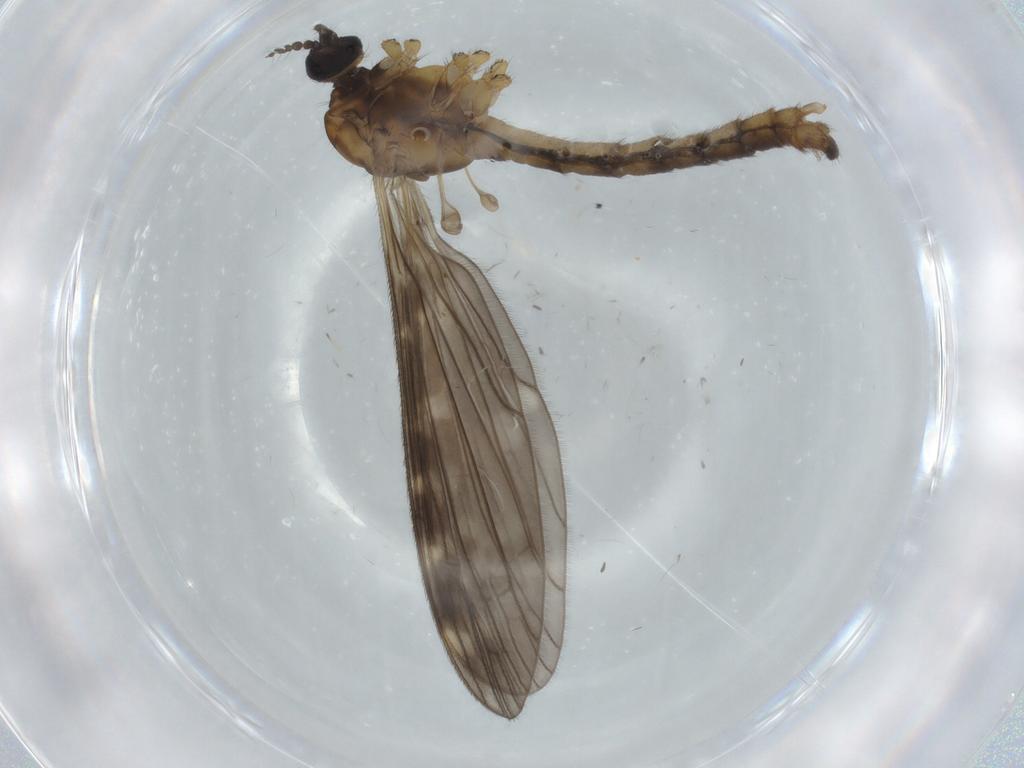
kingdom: Animalia
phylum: Arthropoda
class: Insecta
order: Diptera
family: Limoniidae
